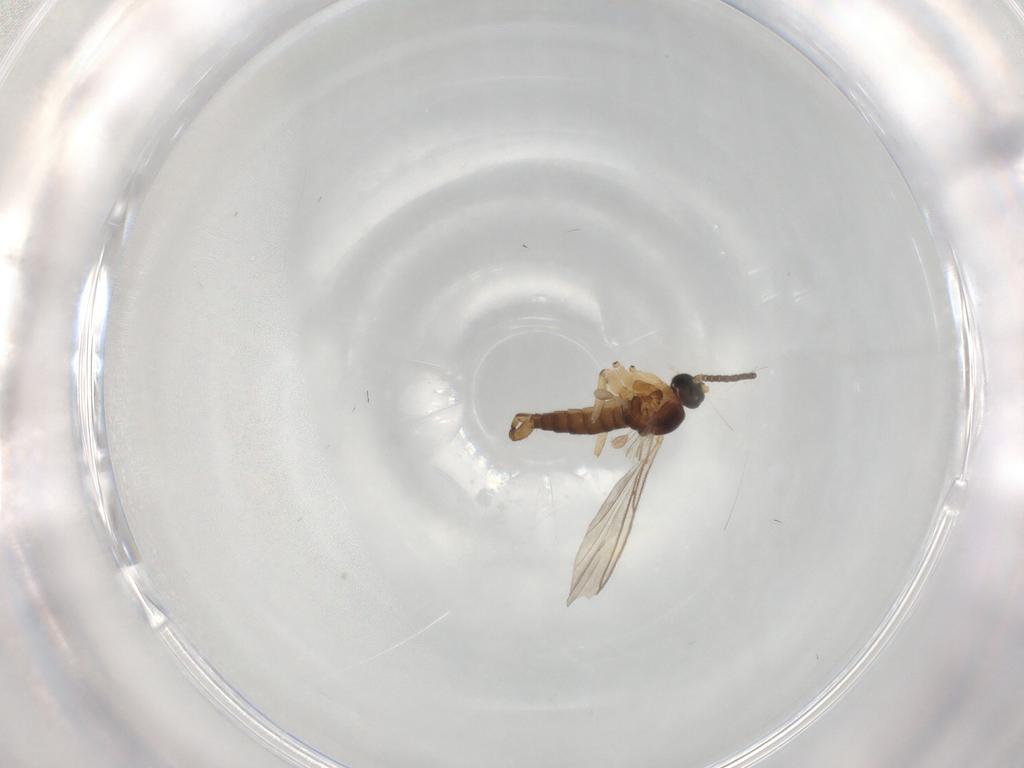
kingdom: Animalia
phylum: Arthropoda
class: Insecta
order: Diptera
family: Sciaridae
